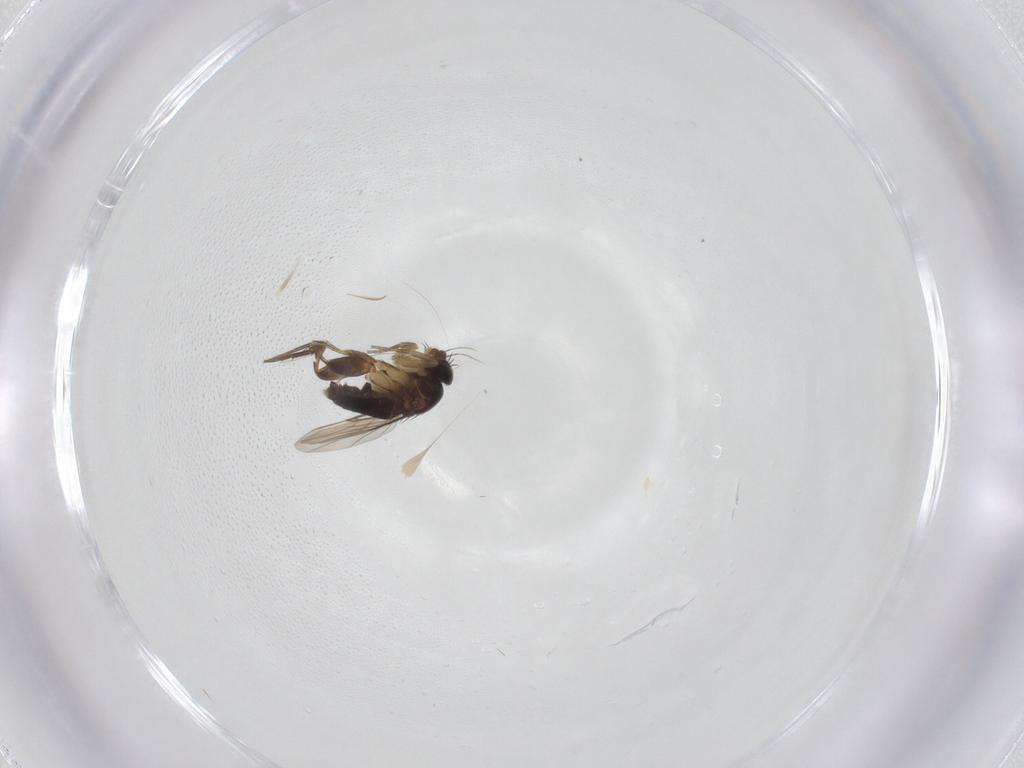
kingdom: Animalia
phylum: Arthropoda
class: Insecta
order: Diptera
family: Phoridae
